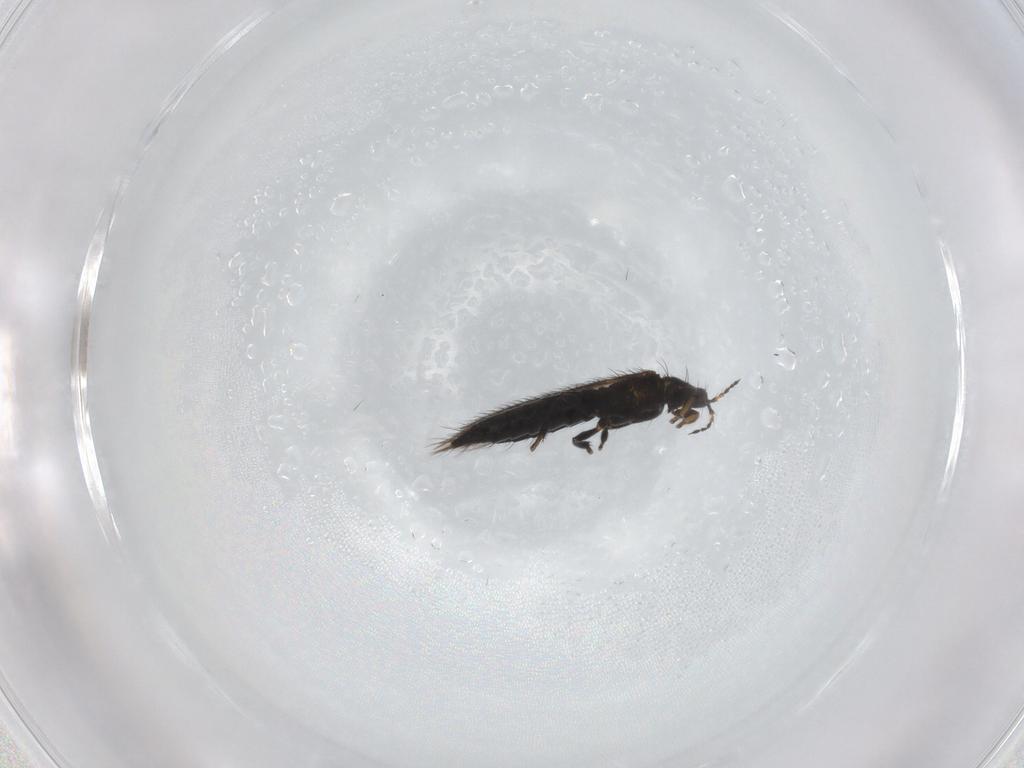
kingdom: Animalia
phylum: Arthropoda
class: Insecta
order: Thysanoptera
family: Thripidae
